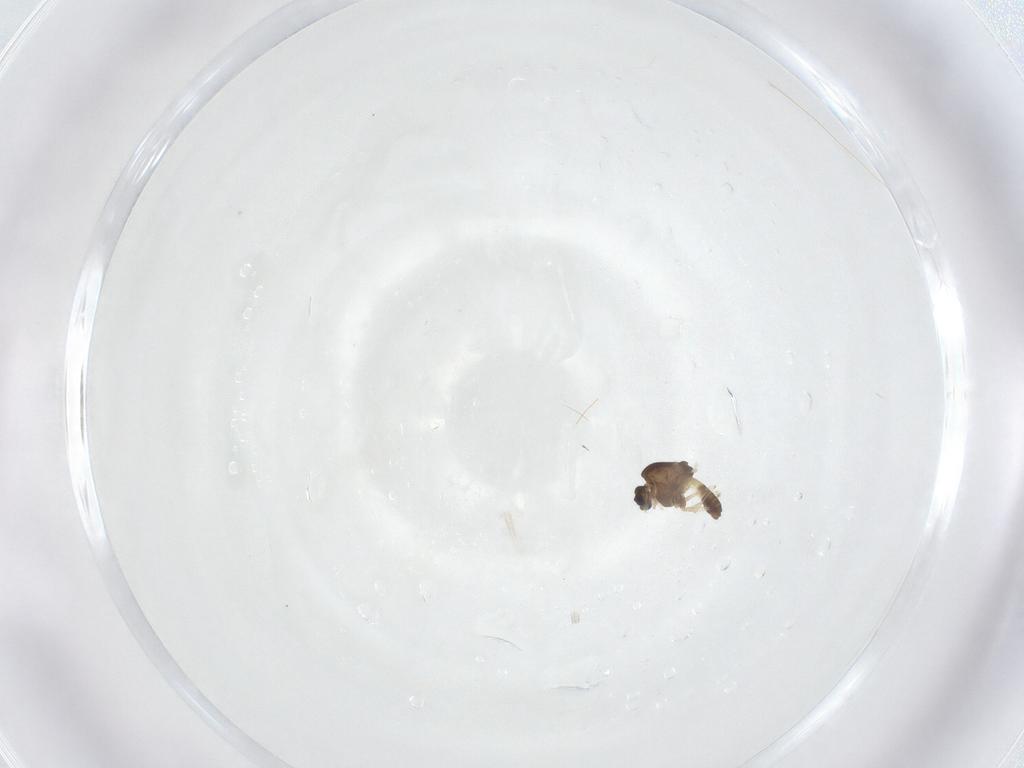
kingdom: Animalia
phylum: Arthropoda
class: Insecta
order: Diptera
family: Chironomidae
